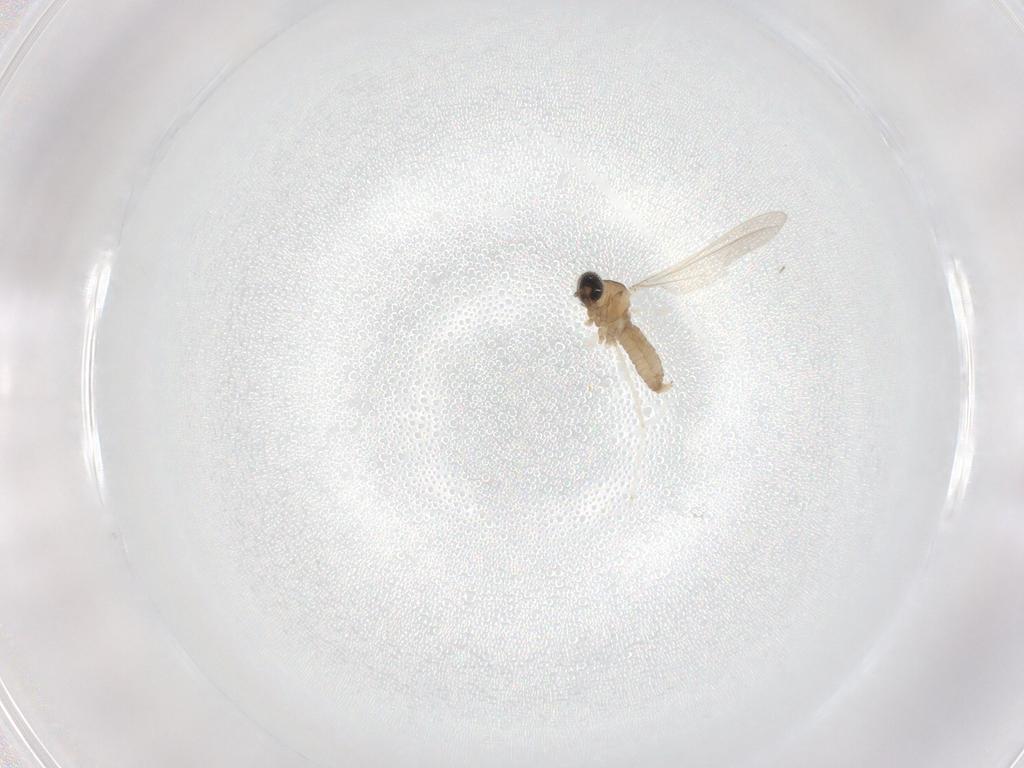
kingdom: Animalia
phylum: Arthropoda
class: Insecta
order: Diptera
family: Cecidomyiidae
